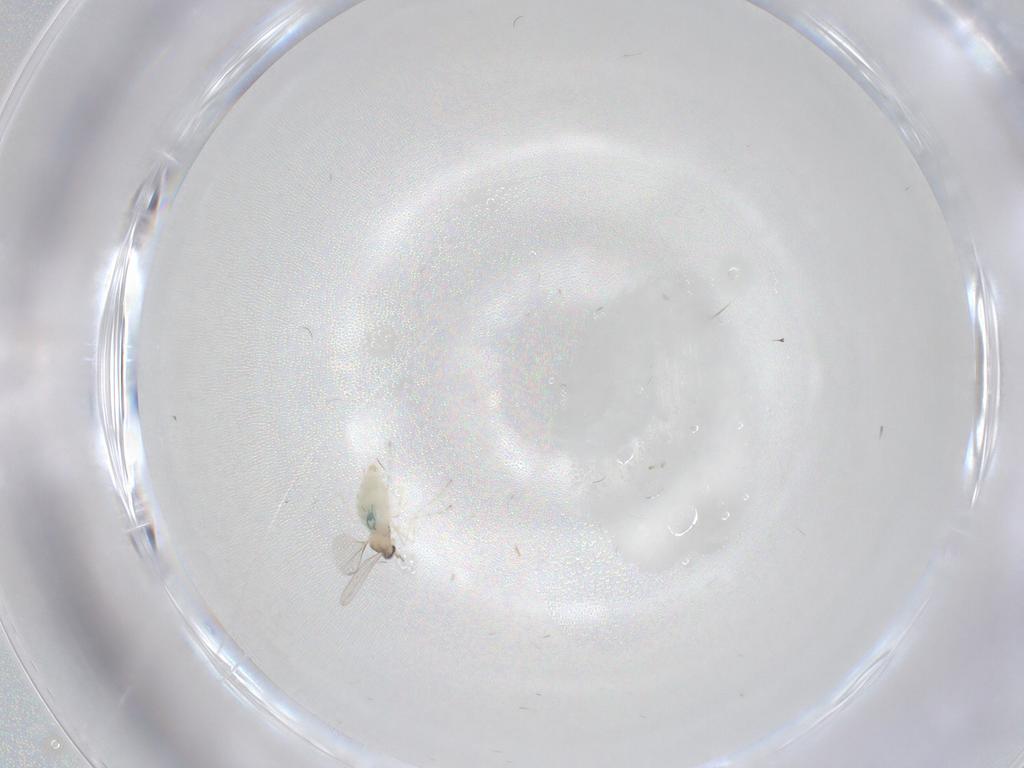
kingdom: Animalia
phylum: Arthropoda
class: Insecta
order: Diptera
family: Cecidomyiidae
